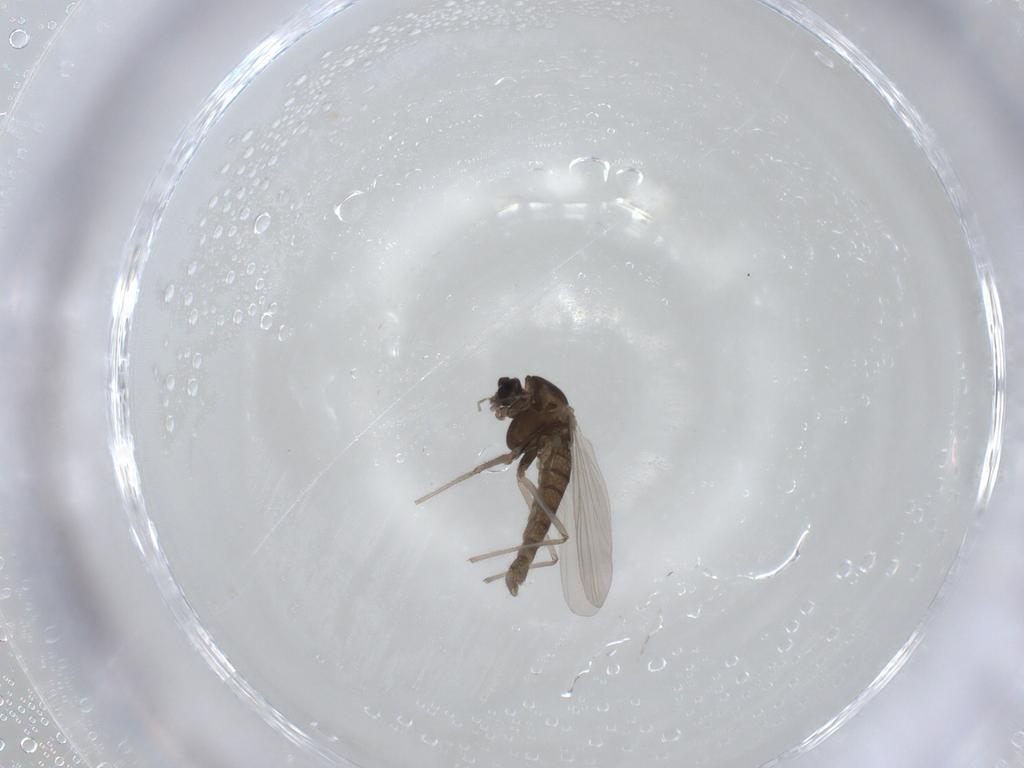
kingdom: Animalia
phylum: Arthropoda
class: Insecta
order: Diptera
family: Chironomidae
